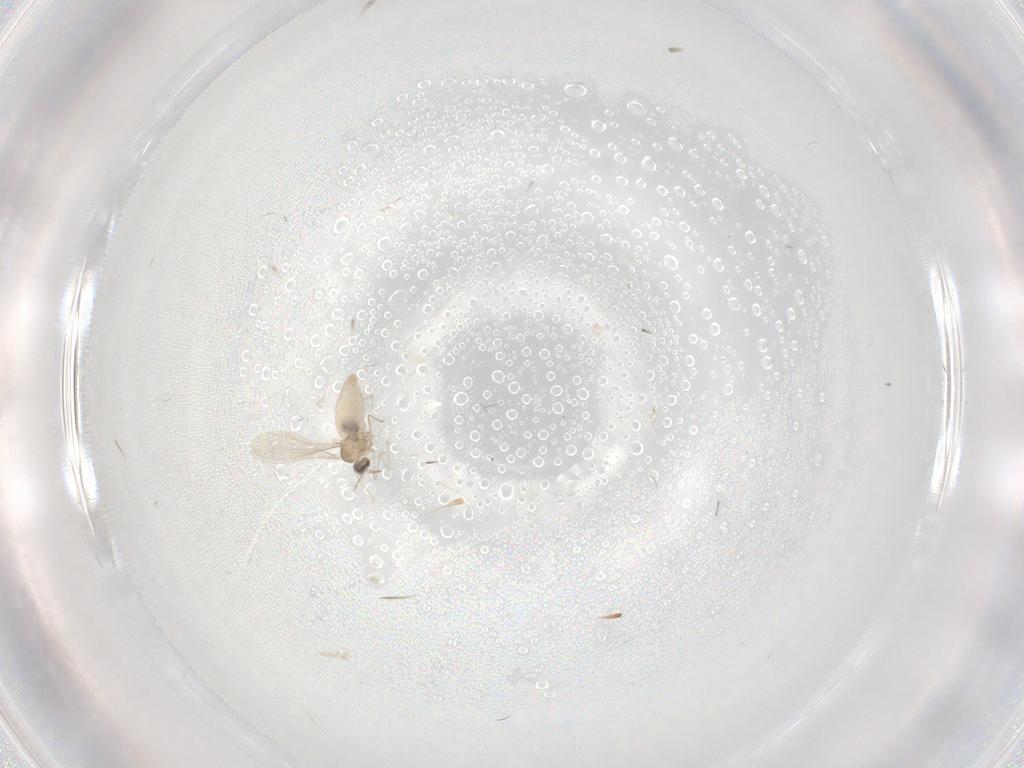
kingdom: Animalia
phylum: Arthropoda
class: Insecta
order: Diptera
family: Cecidomyiidae
